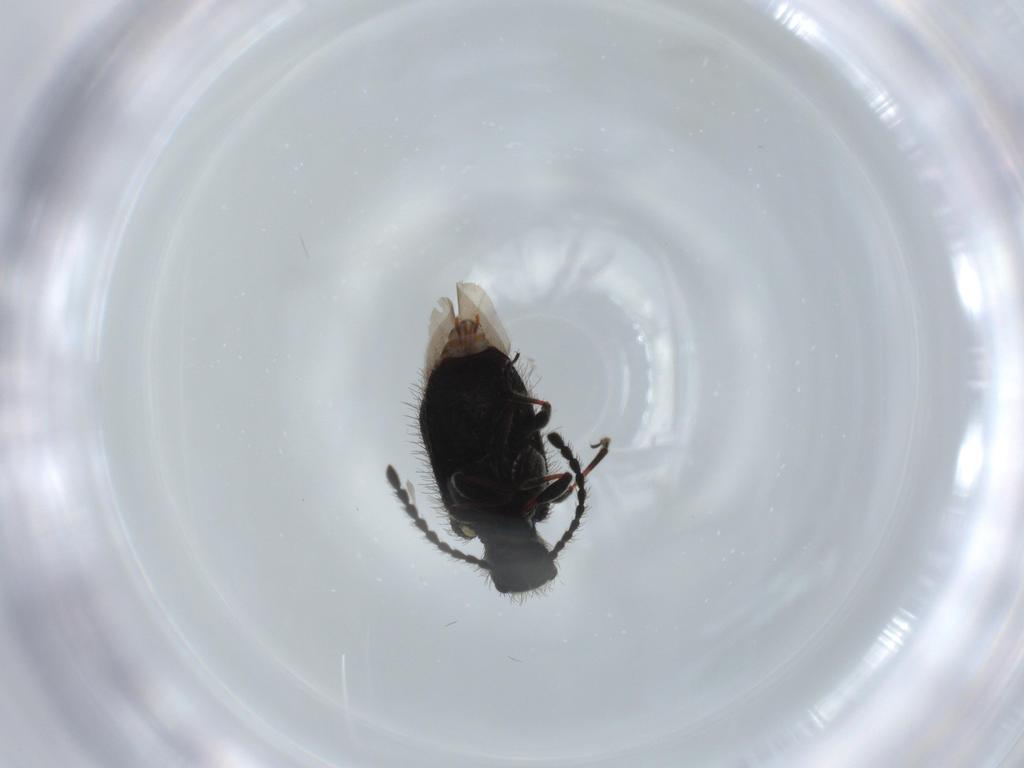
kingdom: Animalia
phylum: Arthropoda
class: Insecta
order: Coleoptera
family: Ptinidae
